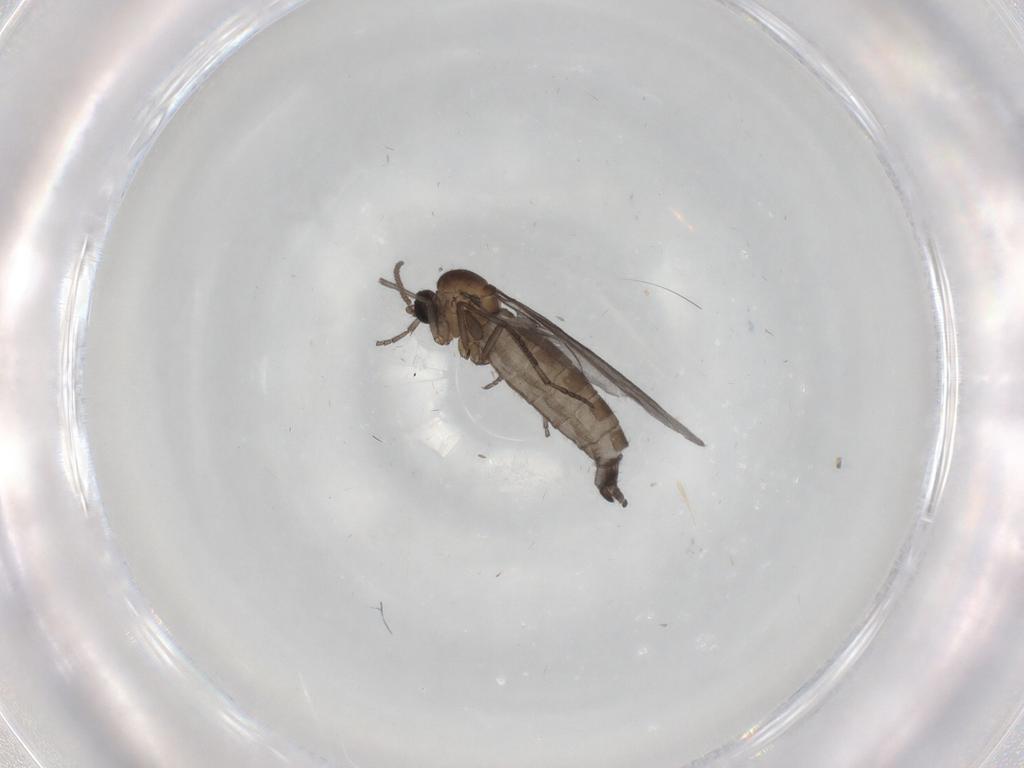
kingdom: Animalia
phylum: Arthropoda
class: Insecta
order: Diptera
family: Sciaridae
